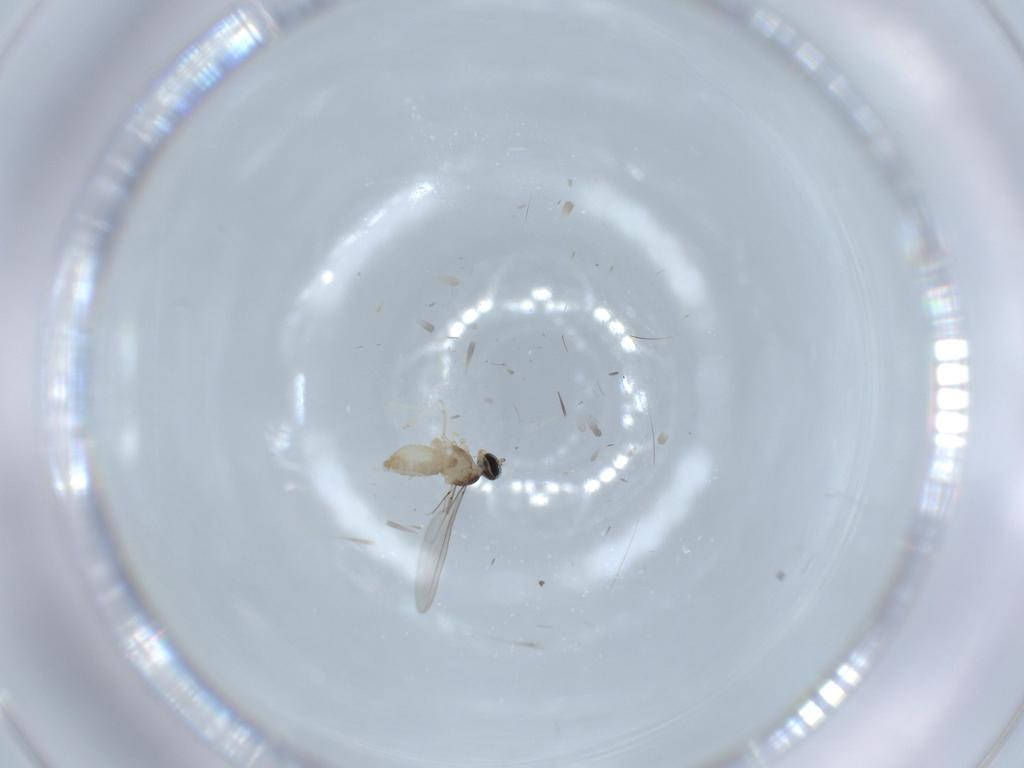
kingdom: Animalia
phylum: Arthropoda
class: Insecta
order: Diptera
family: Cecidomyiidae
